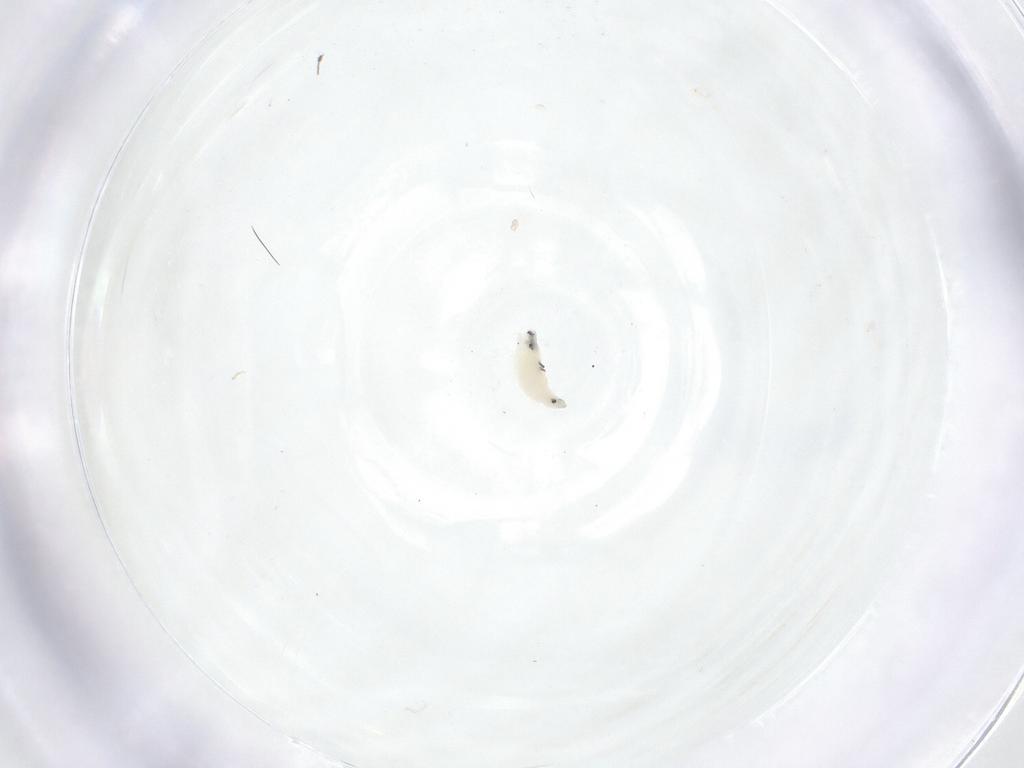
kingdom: Animalia
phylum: Arthropoda
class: Insecta
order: Diptera
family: Fergusoninidae
